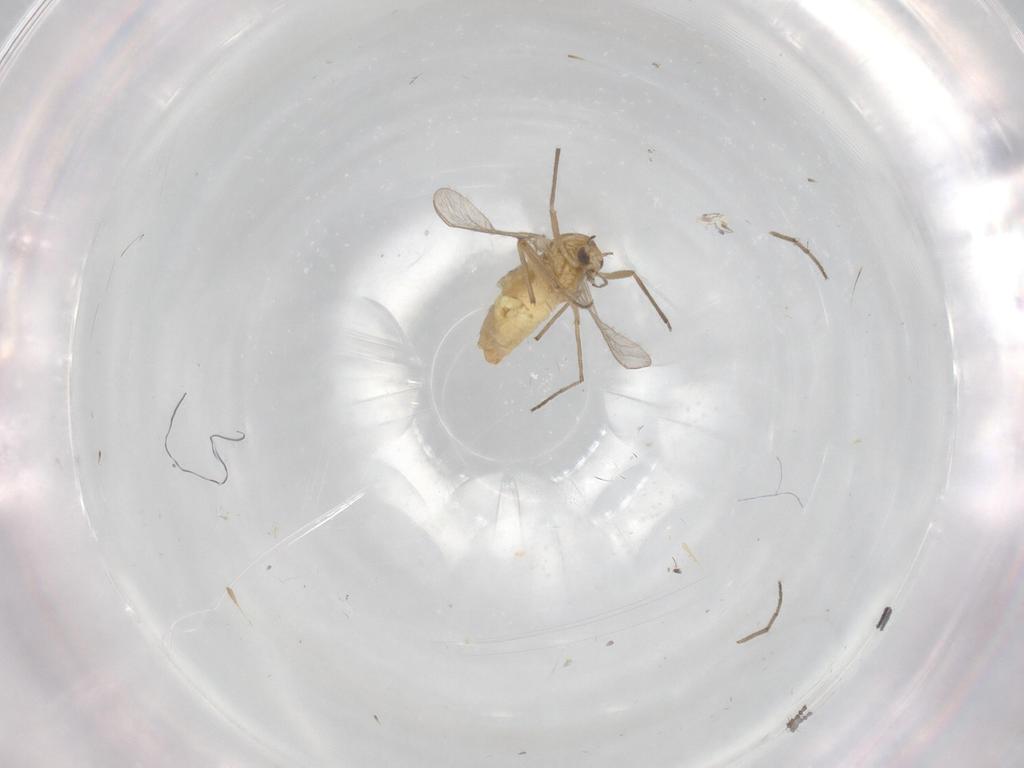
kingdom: Animalia
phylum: Arthropoda
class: Insecta
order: Diptera
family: Chironomidae
